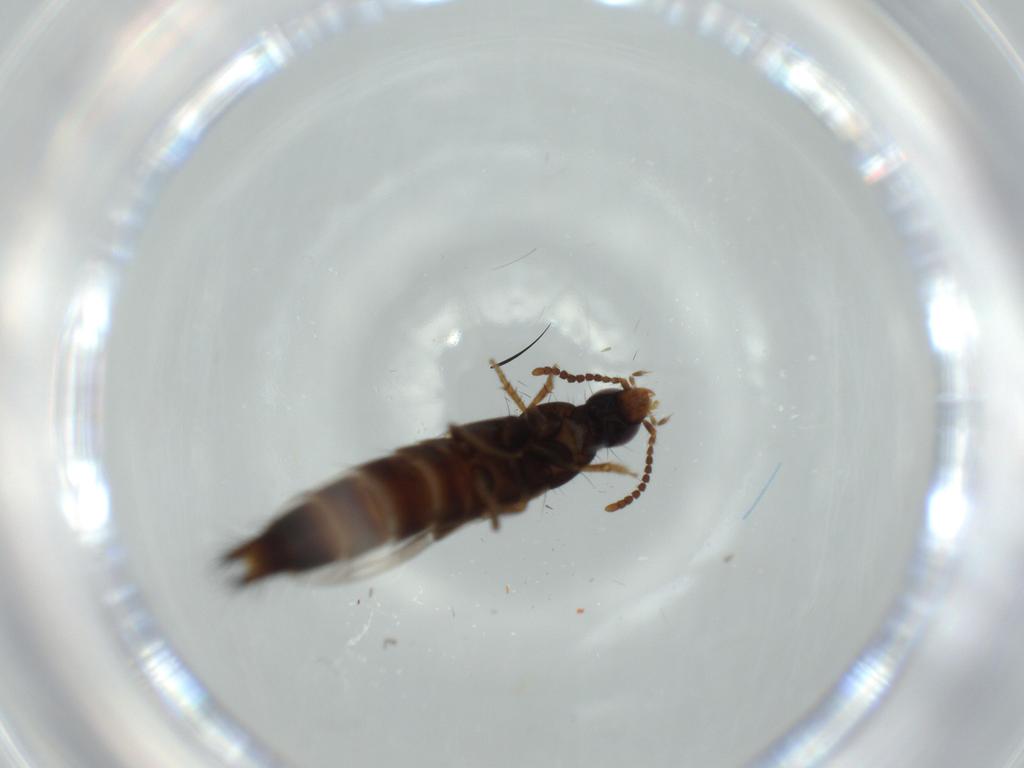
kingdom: Animalia
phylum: Arthropoda
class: Insecta
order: Coleoptera
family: Staphylinidae
